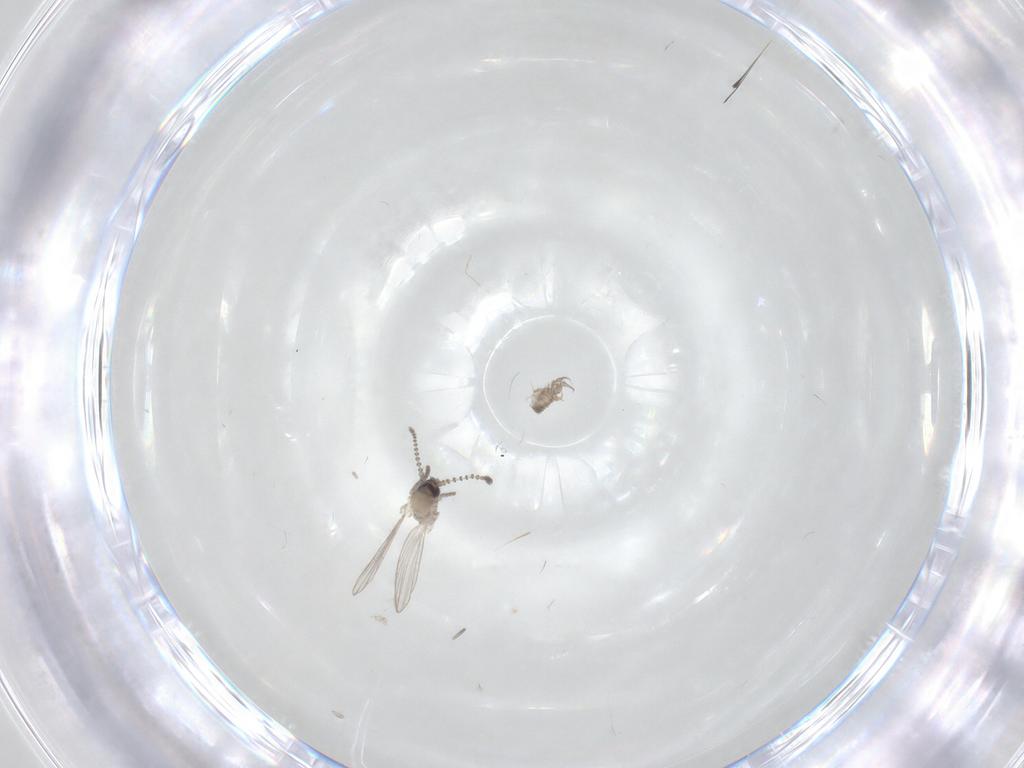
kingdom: Animalia
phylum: Arthropoda
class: Insecta
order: Diptera
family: Psychodidae
